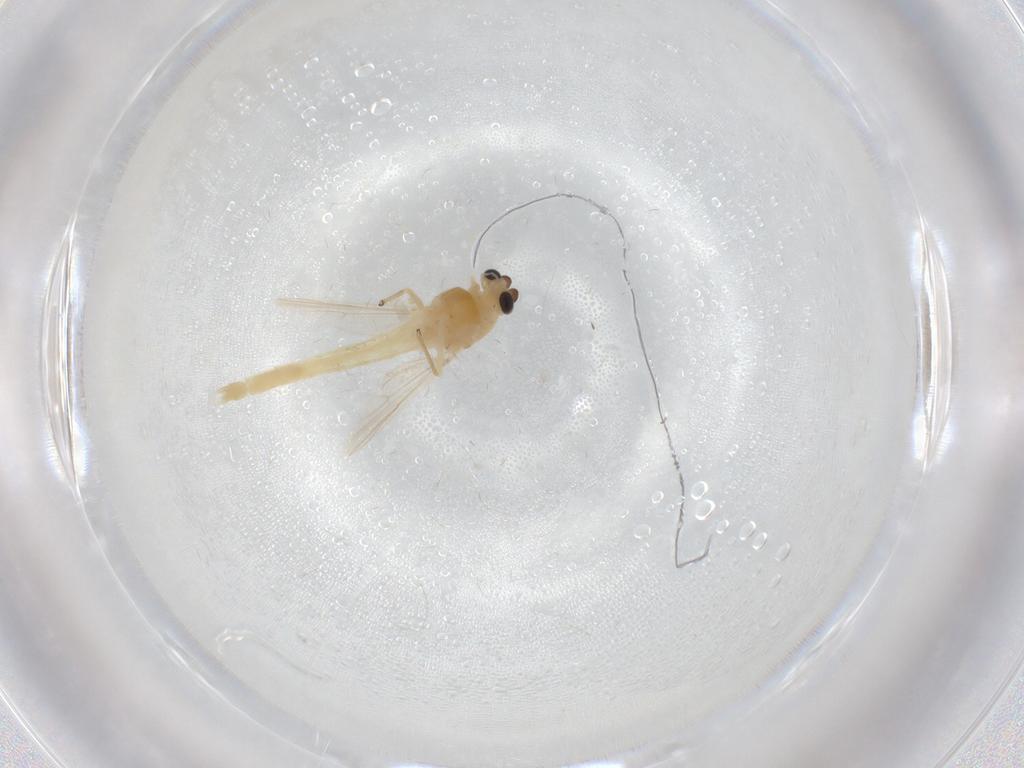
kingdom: Animalia
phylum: Arthropoda
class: Insecta
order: Diptera
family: Chironomidae
